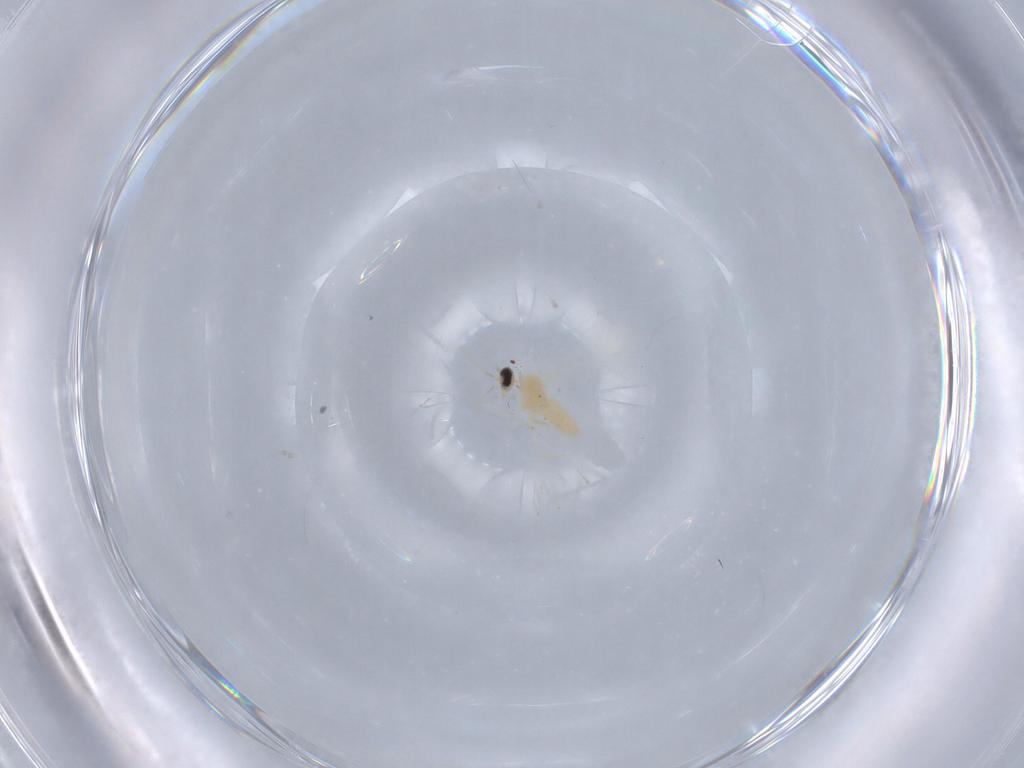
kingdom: Animalia
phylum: Arthropoda
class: Insecta
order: Diptera
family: Cecidomyiidae
